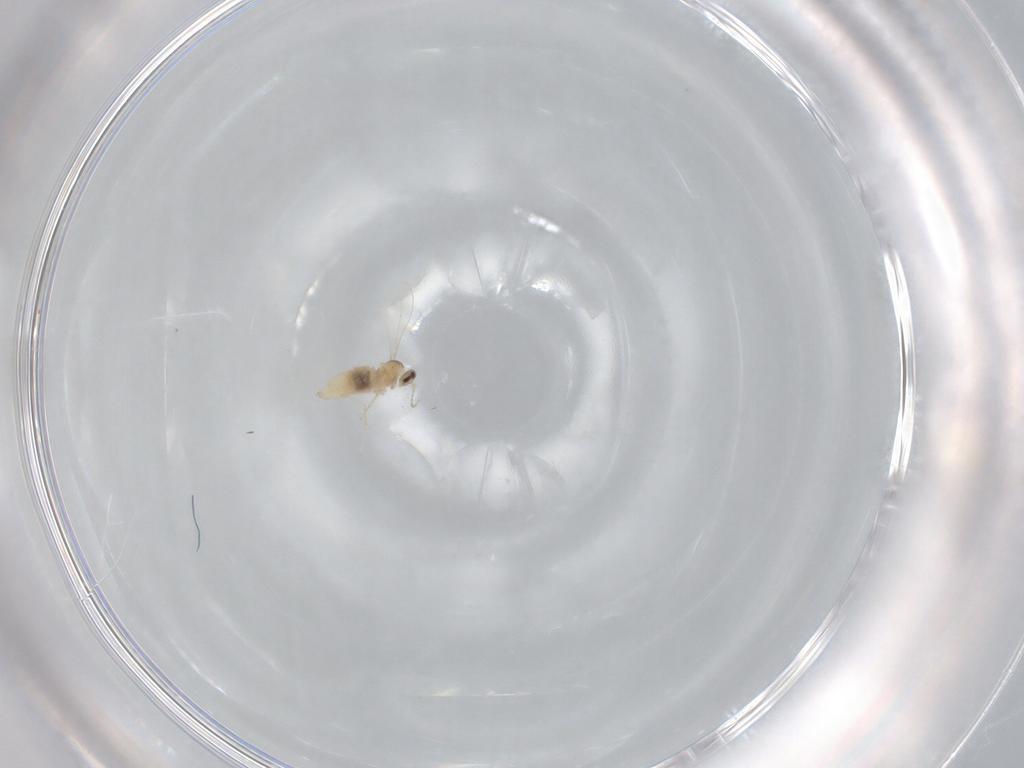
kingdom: Animalia
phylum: Arthropoda
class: Insecta
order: Diptera
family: Cecidomyiidae
